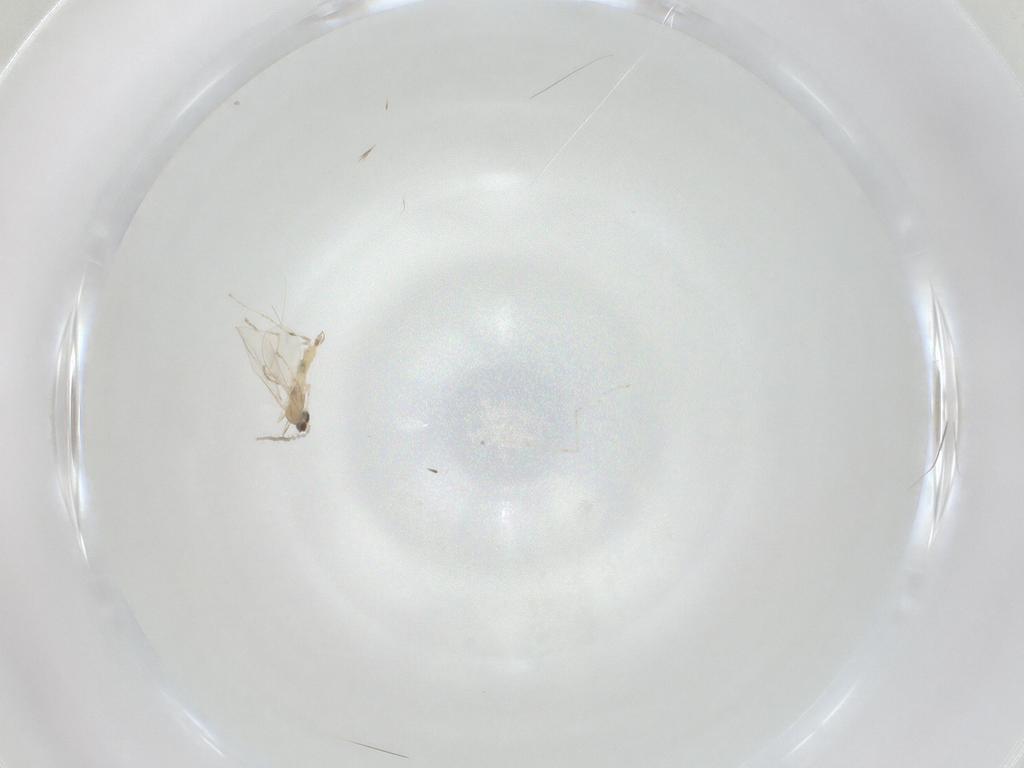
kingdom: Animalia
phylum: Arthropoda
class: Insecta
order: Diptera
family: Cecidomyiidae
